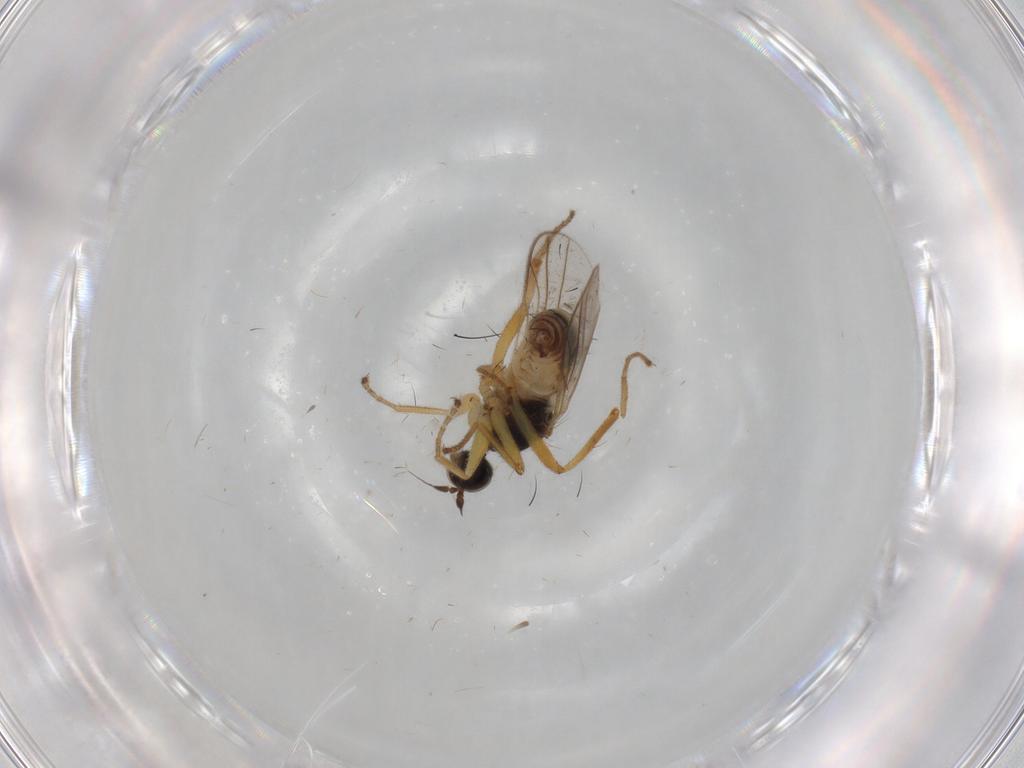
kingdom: Animalia
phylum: Arthropoda
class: Insecta
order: Diptera
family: Hybotidae
